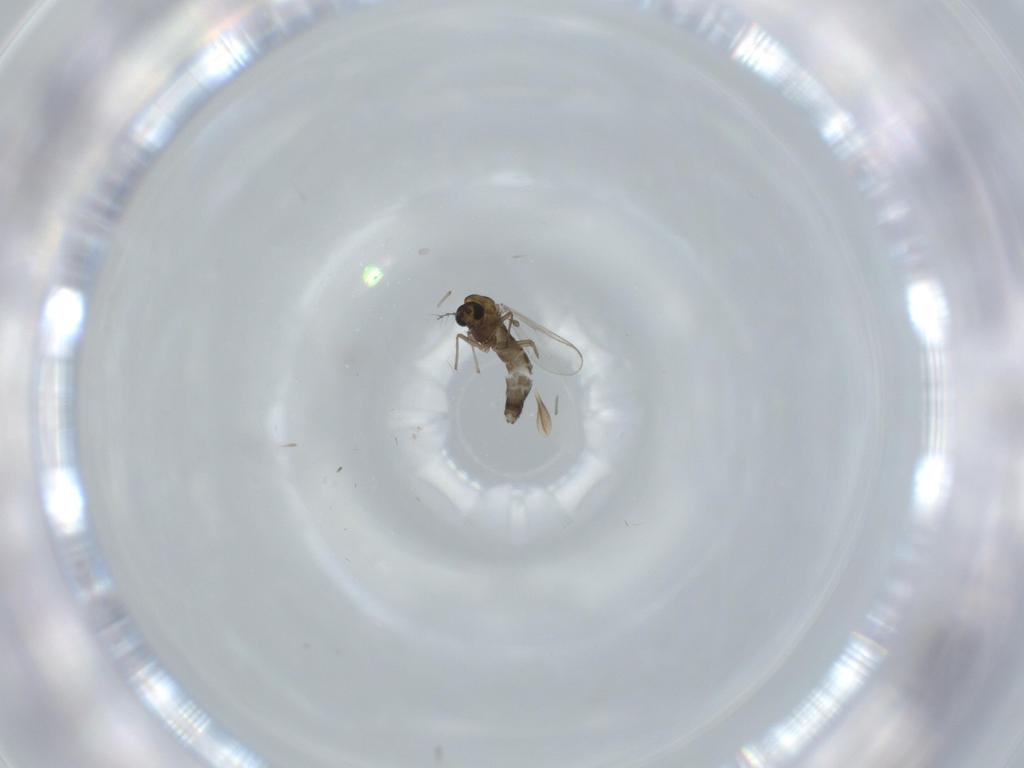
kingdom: Animalia
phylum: Arthropoda
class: Insecta
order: Diptera
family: Chironomidae
